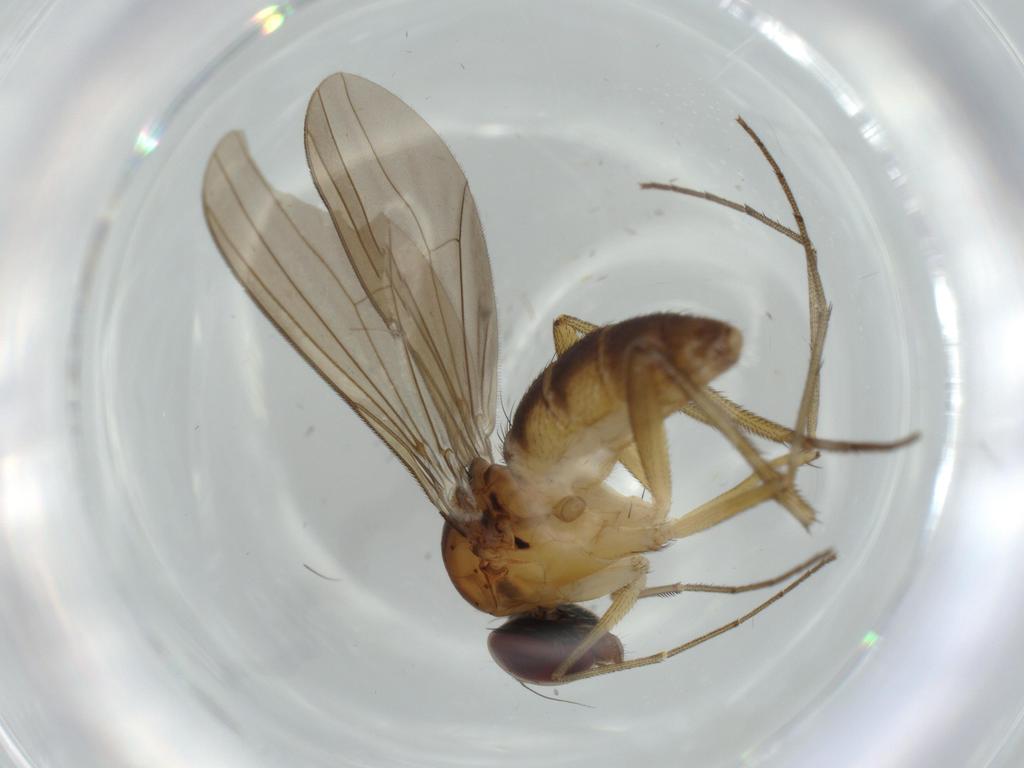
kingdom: Animalia
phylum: Arthropoda
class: Insecta
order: Diptera
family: Dolichopodidae
